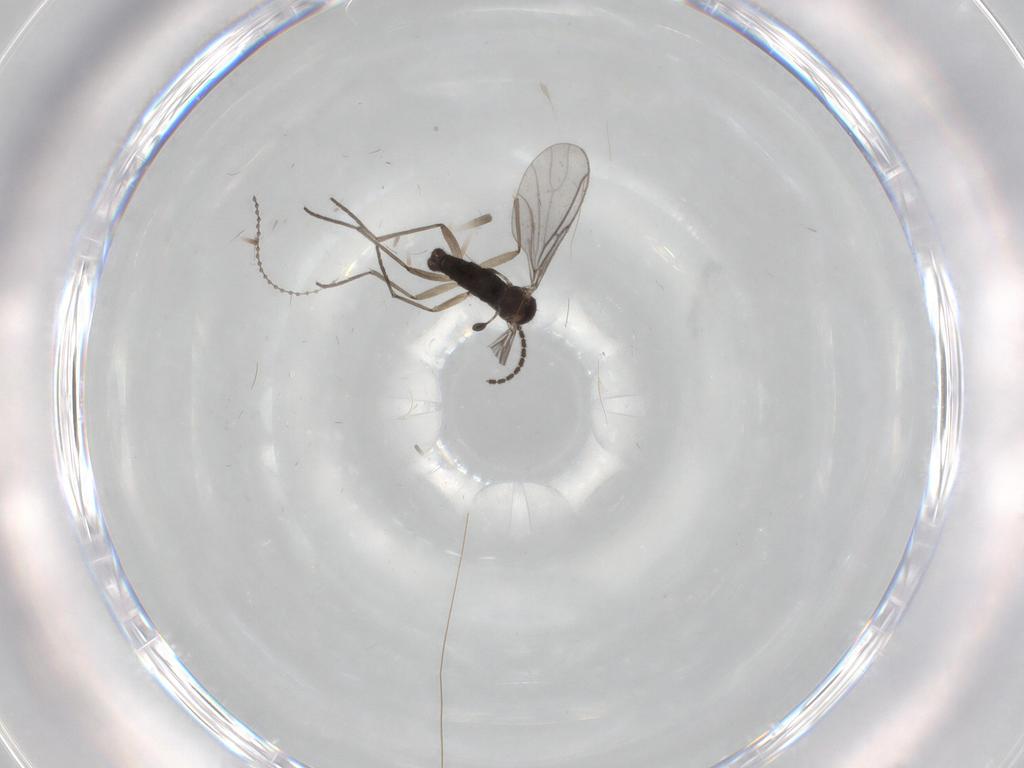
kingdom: Animalia
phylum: Arthropoda
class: Insecta
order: Diptera
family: Sciaridae
